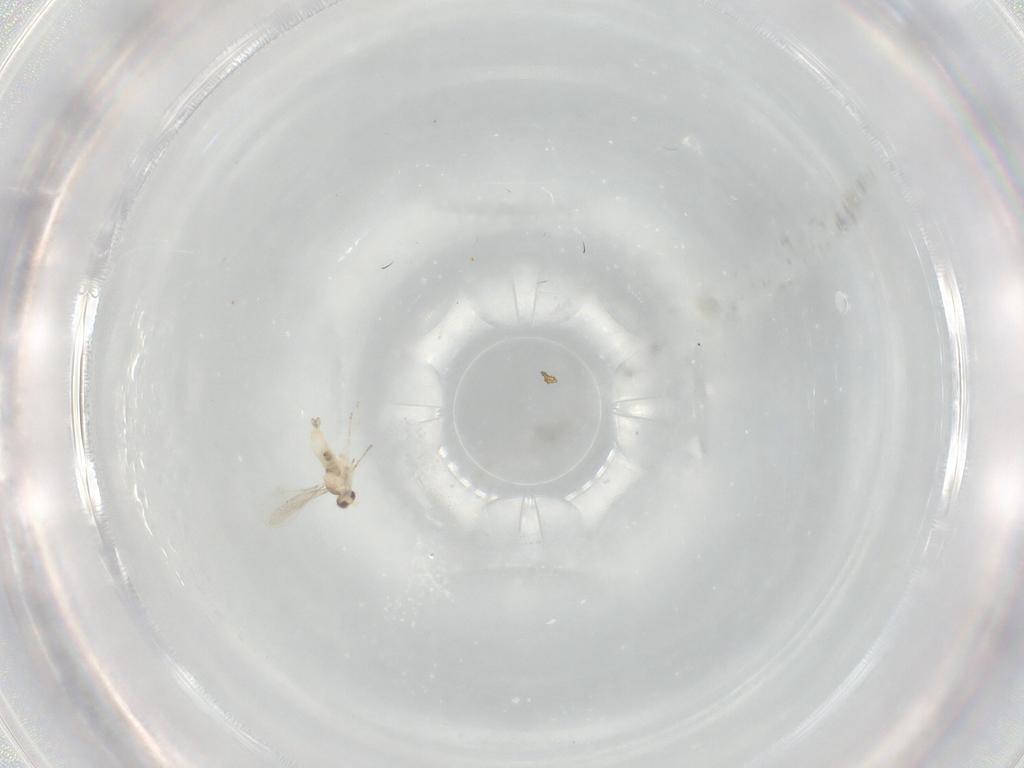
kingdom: Animalia
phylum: Arthropoda
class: Insecta
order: Diptera
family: Cecidomyiidae
